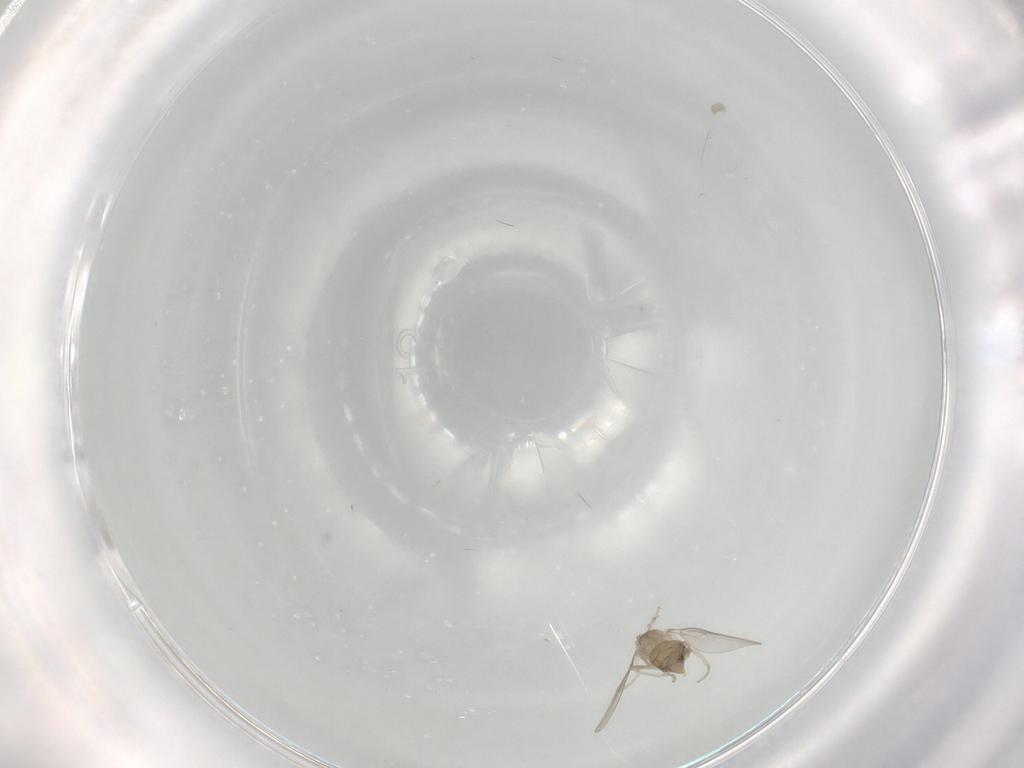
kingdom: Animalia
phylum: Arthropoda
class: Insecta
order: Diptera
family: Cecidomyiidae
